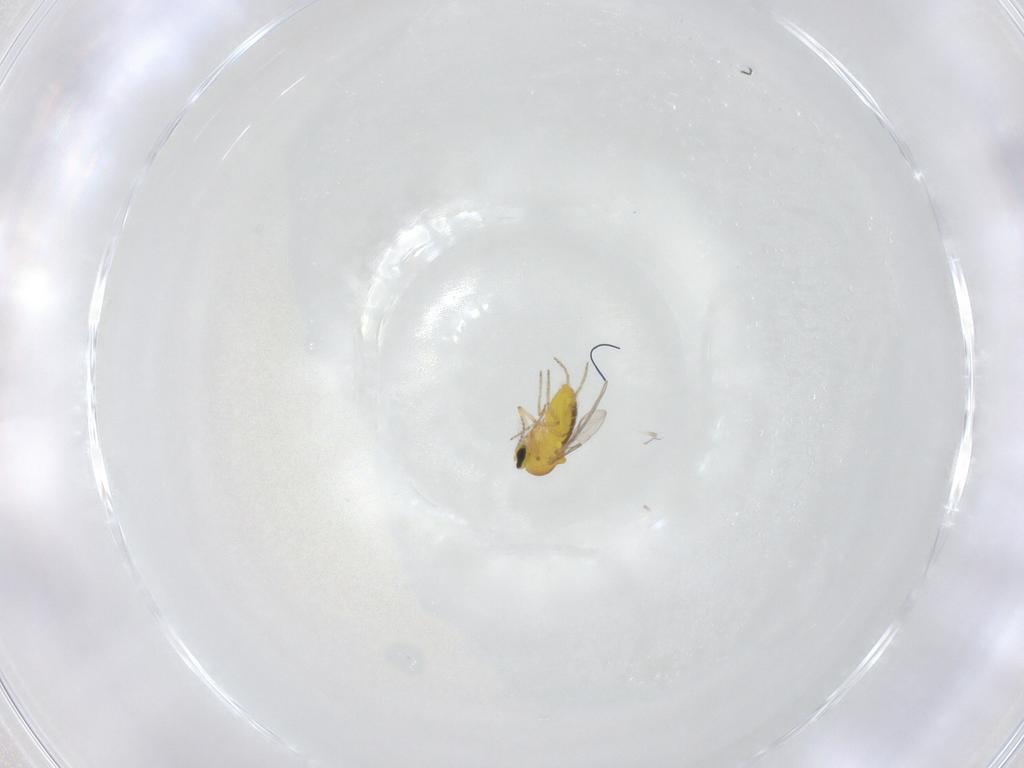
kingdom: Animalia
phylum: Arthropoda
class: Insecta
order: Diptera
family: Ceratopogonidae
